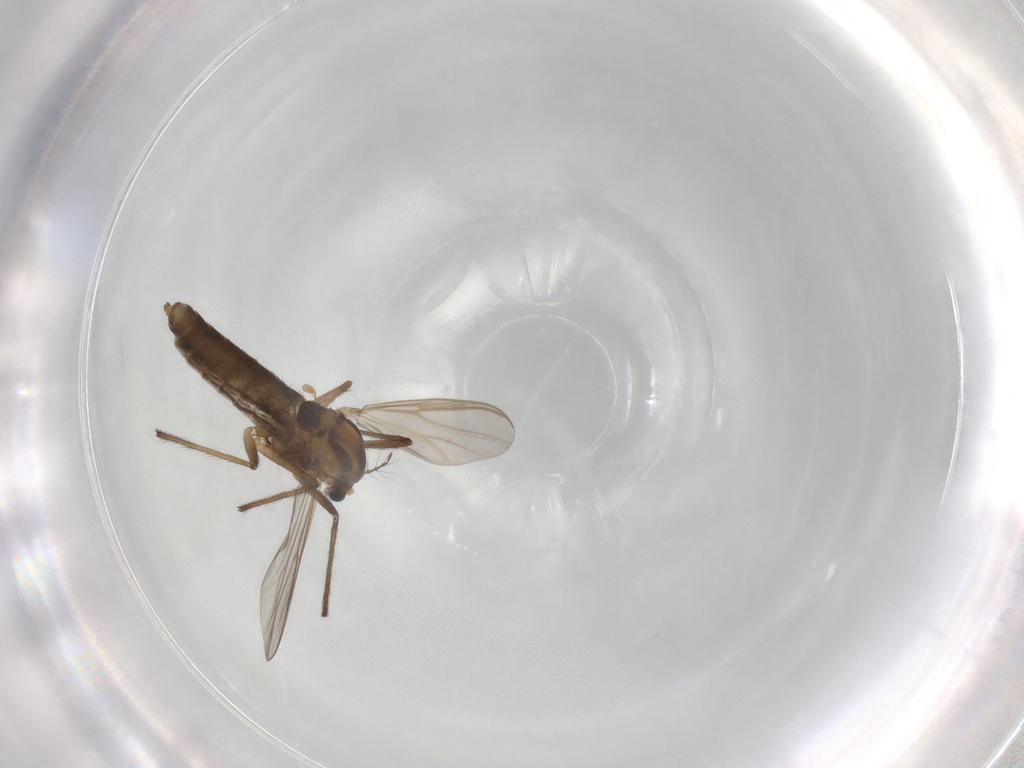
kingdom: Animalia
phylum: Arthropoda
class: Insecta
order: Diptera
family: Chironomidae
